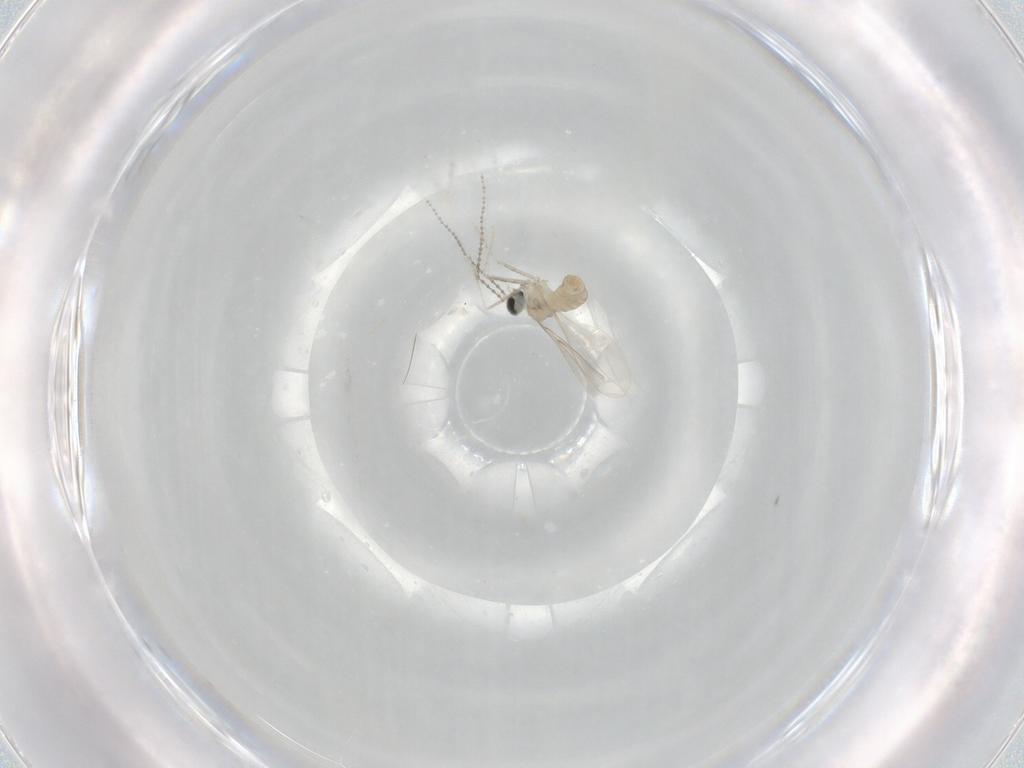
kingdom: Animalia
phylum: Arthropoda
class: Insecta
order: Diptera
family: Cecidomyiidae
